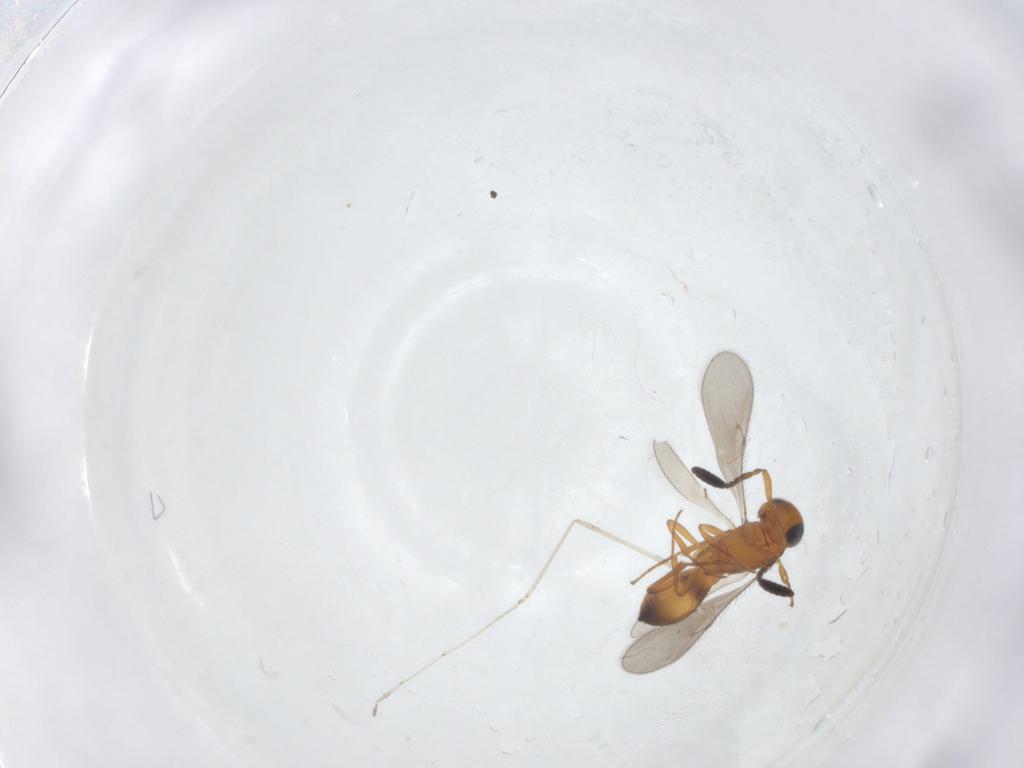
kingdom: Animalia
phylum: Arthropoda
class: Insecta
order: Hymenoptera
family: Scelionidae
